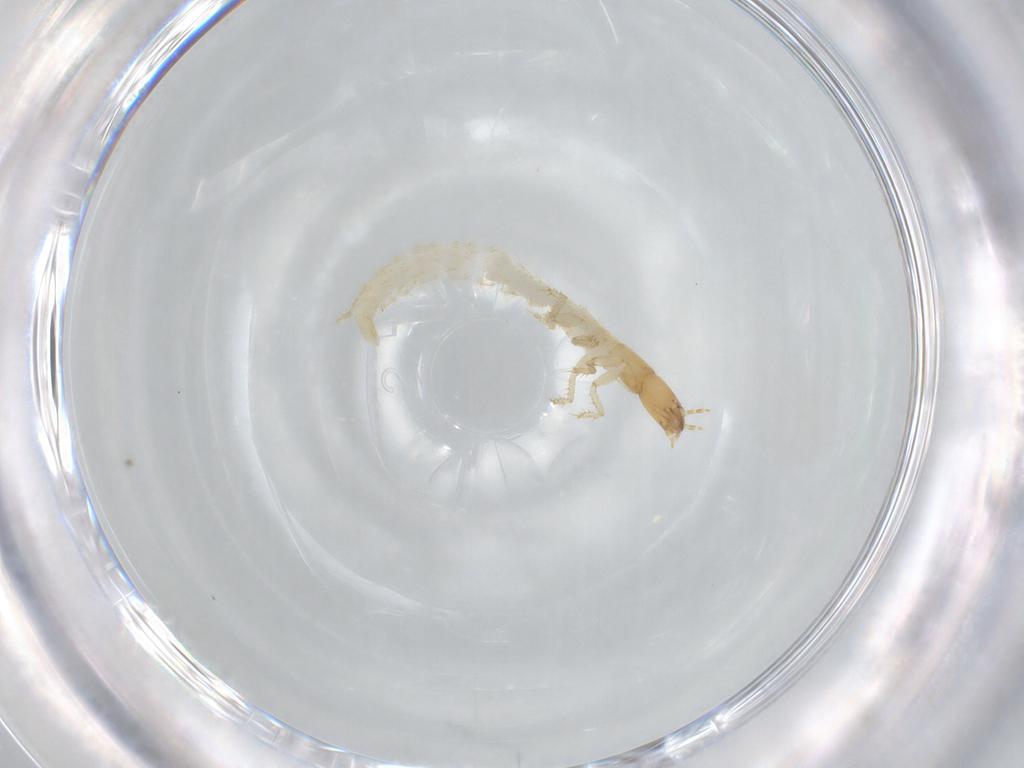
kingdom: Animalia
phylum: Arthropoda
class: Insecta
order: Coleoptera
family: Staphylinidae
